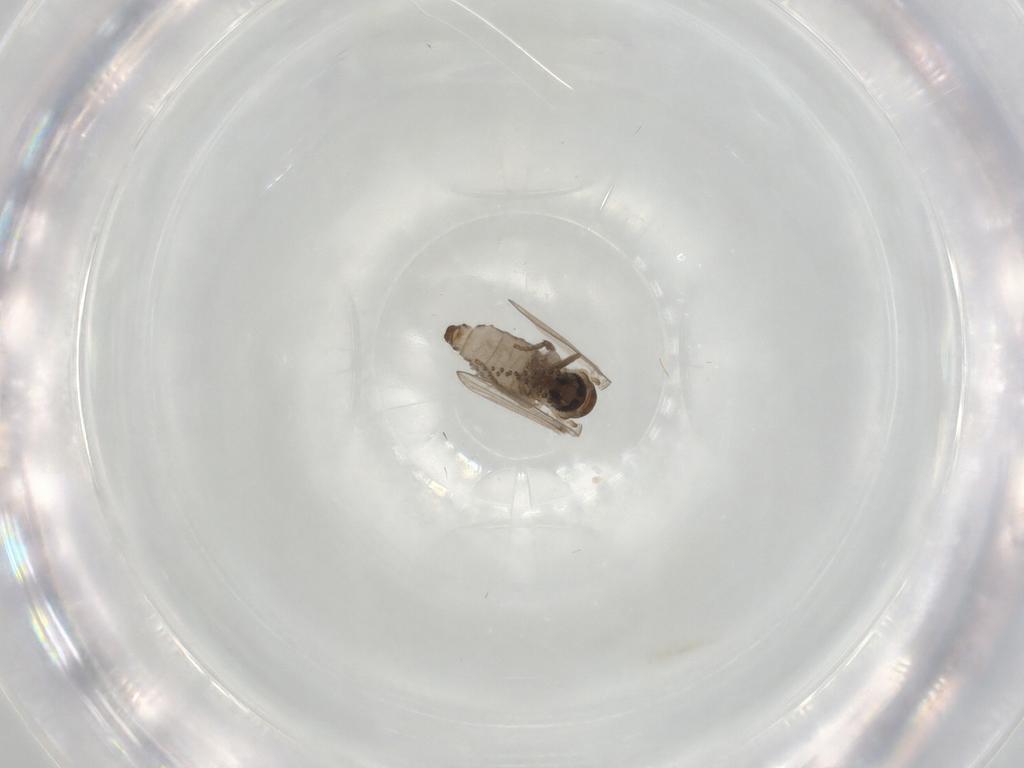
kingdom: Animalia
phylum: Arthropoda
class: Insecta
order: Diptera
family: Psychodidae
